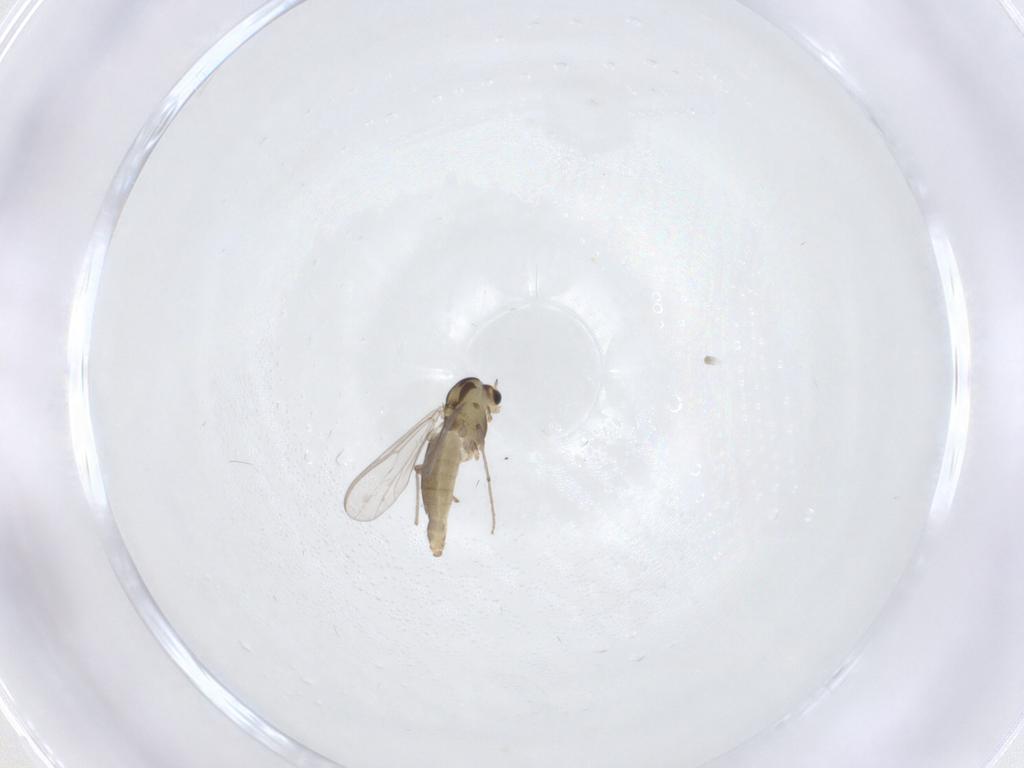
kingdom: Animalia
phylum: Arthropoda
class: Insecta
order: Diptera
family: Chironomidae
